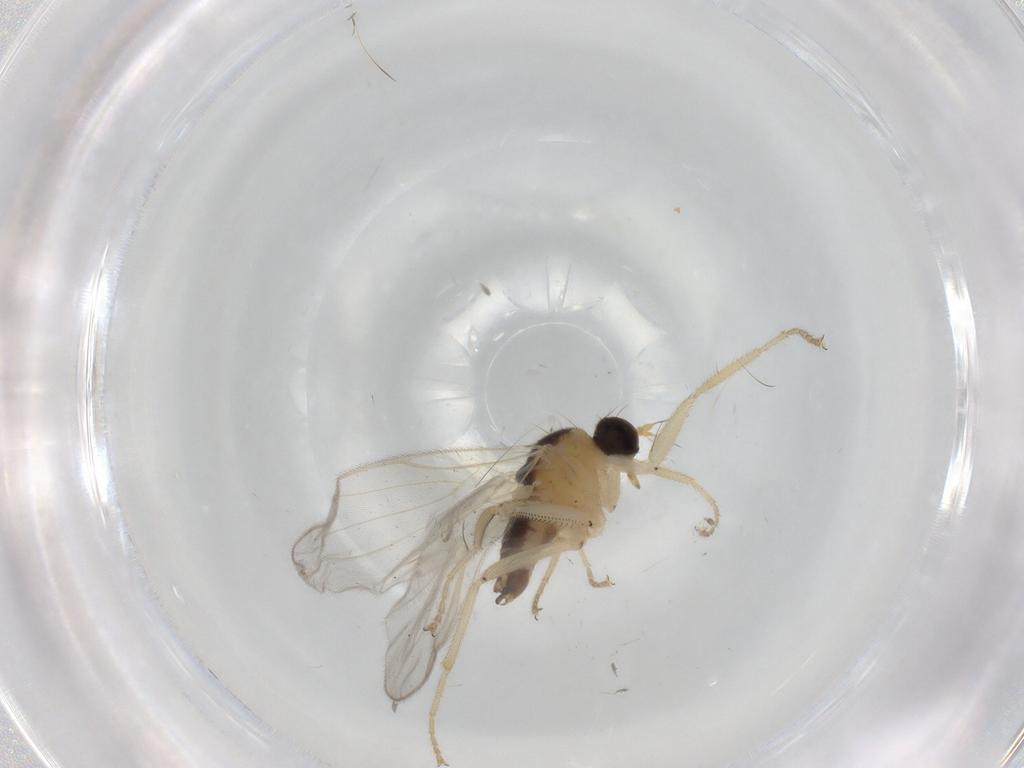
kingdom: Animalia
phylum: Arthropoda
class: Insecta
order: Diptera
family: Hybotidae
